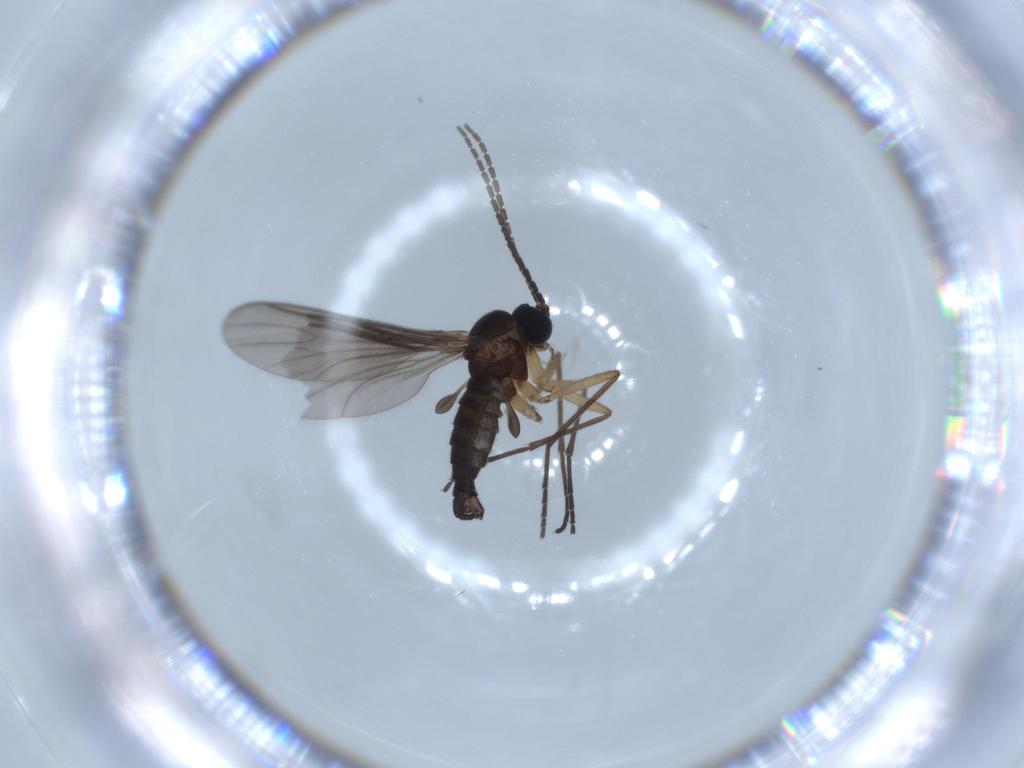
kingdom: Animalia
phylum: Arthropoda
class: Insecta
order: Diptera
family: Sciaridae
